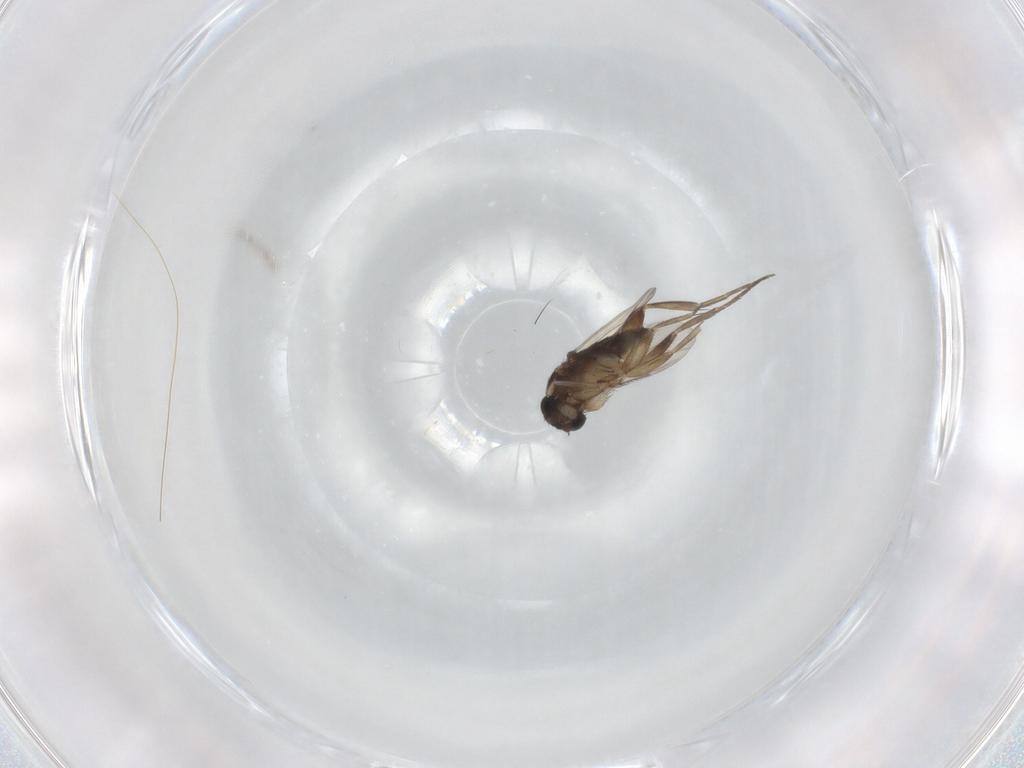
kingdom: Animalia
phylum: Arthropoda
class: Insecta
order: Diptera
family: Phoridae
